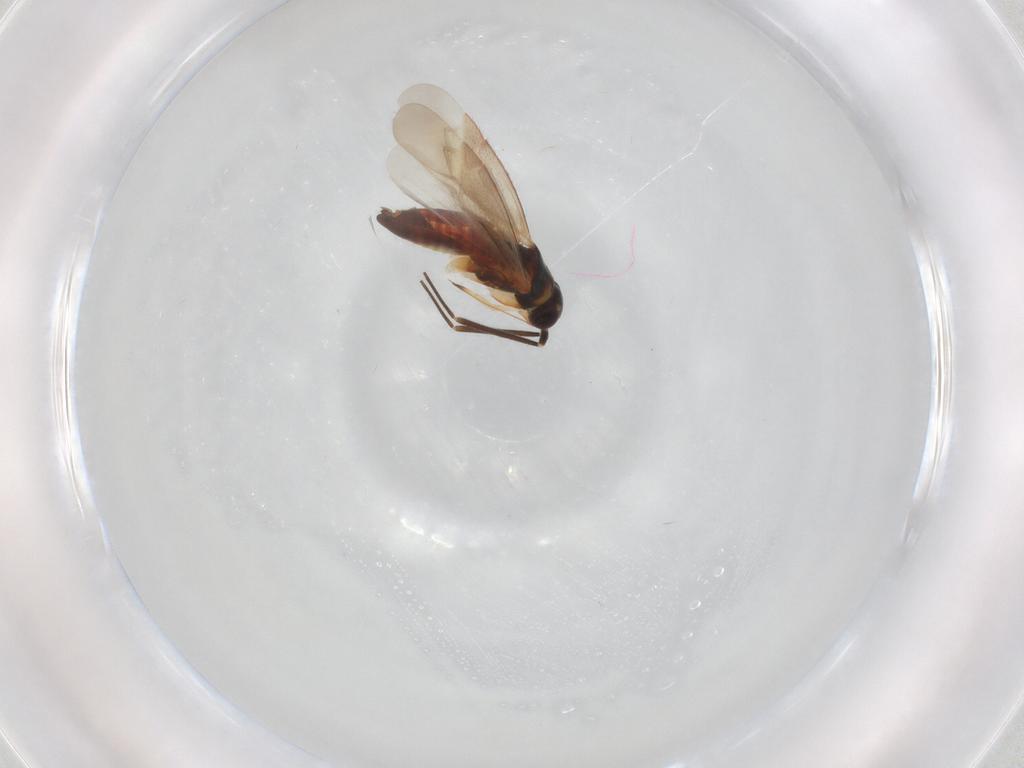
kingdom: Animalia
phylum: Arthropoda
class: Insecta
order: Hemiptera
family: Miridae
